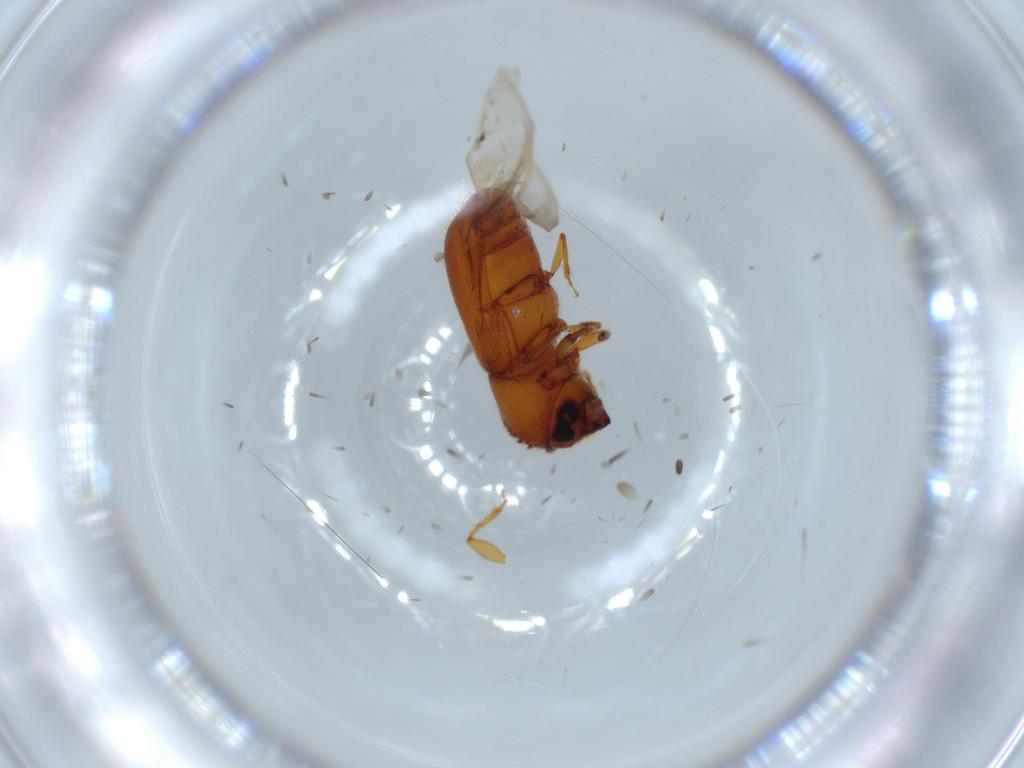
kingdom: Animalia
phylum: Arthropoda
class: Insecta
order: Coleoptera
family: Curculionidae
